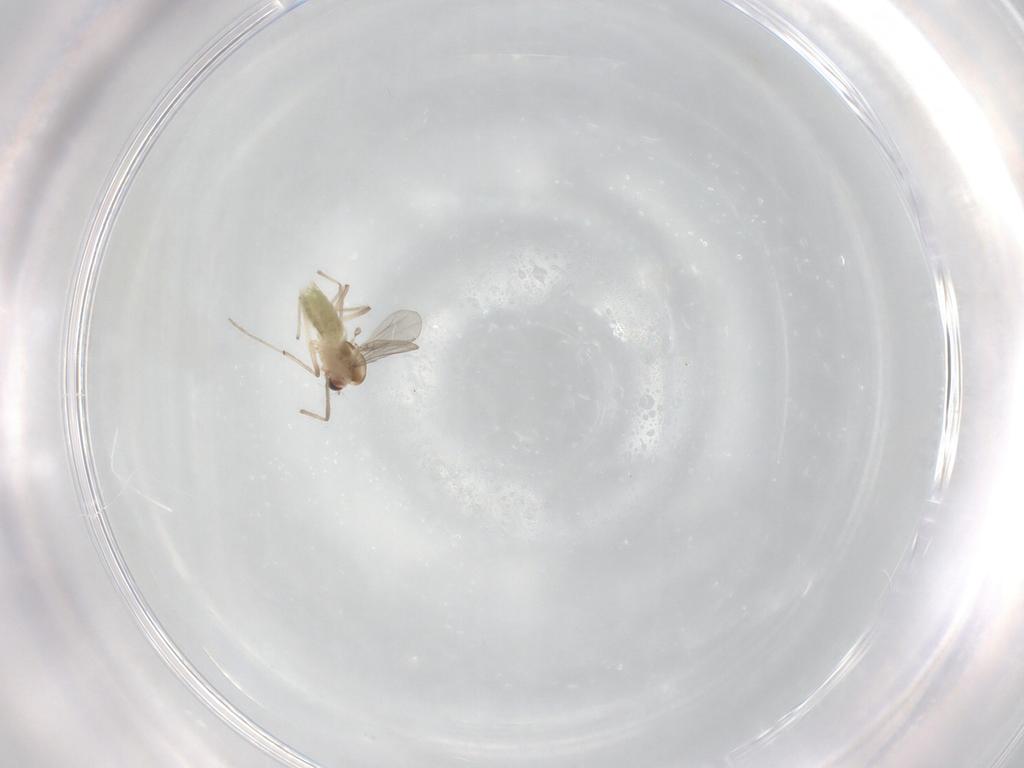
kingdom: Animalia
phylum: Arthropoda
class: Insecta
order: Diptera
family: Chironomidae
